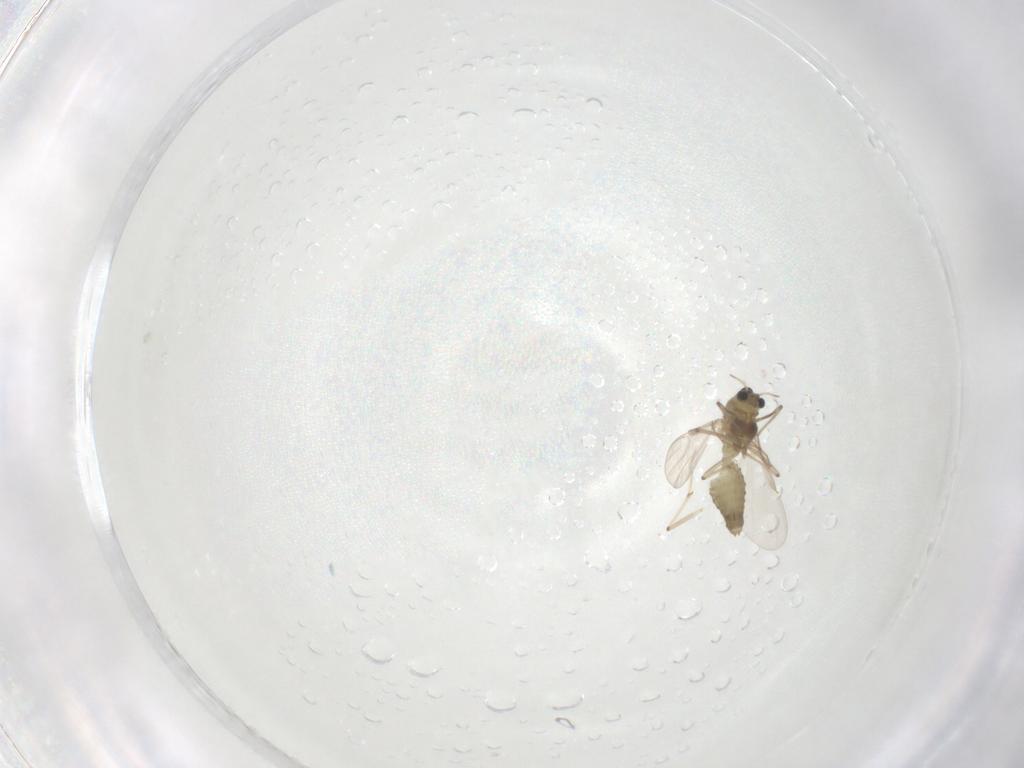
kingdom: Animalia
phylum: Arthropoda
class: Insecta
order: Diptera
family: Chironomidae
